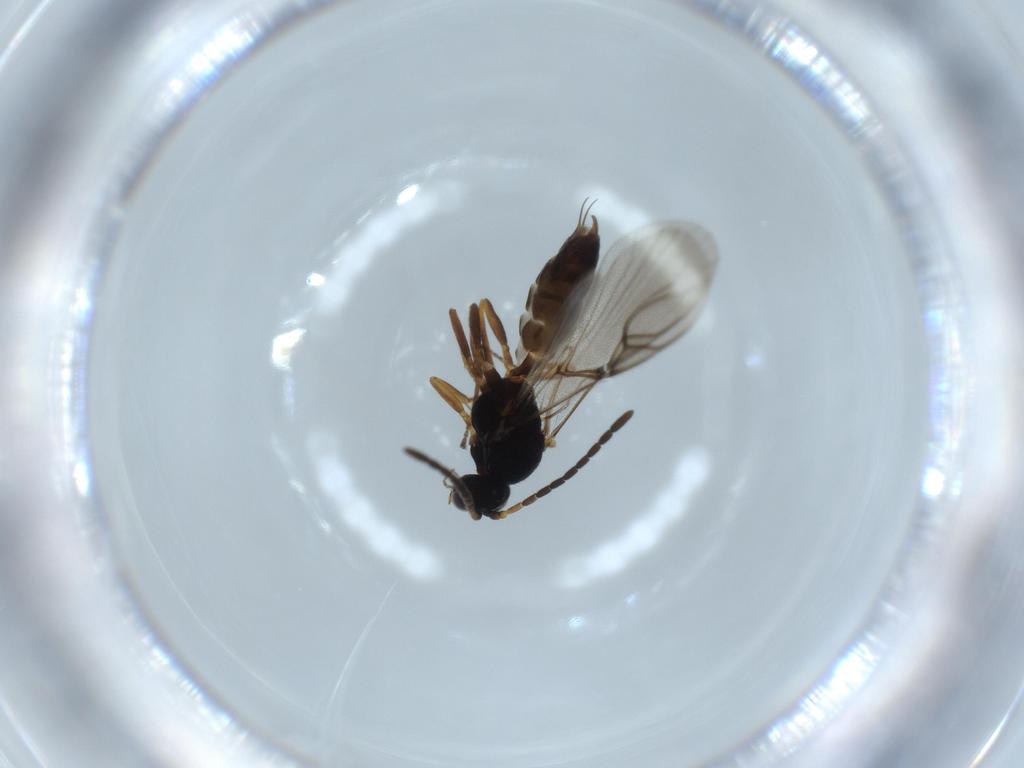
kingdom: Animalia
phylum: Arthropoda
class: Insecta
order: Hymenoptera
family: Braconidae
